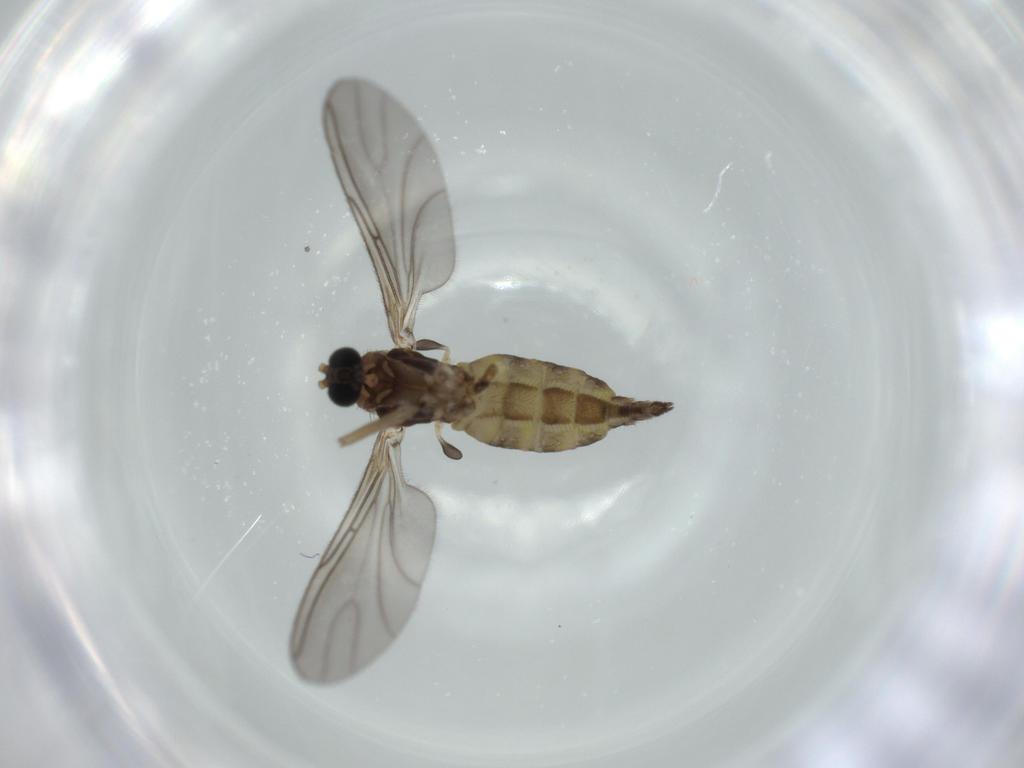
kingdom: Animalia
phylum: Arthropoda
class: Insecta
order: Diptera
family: Sciaridae
